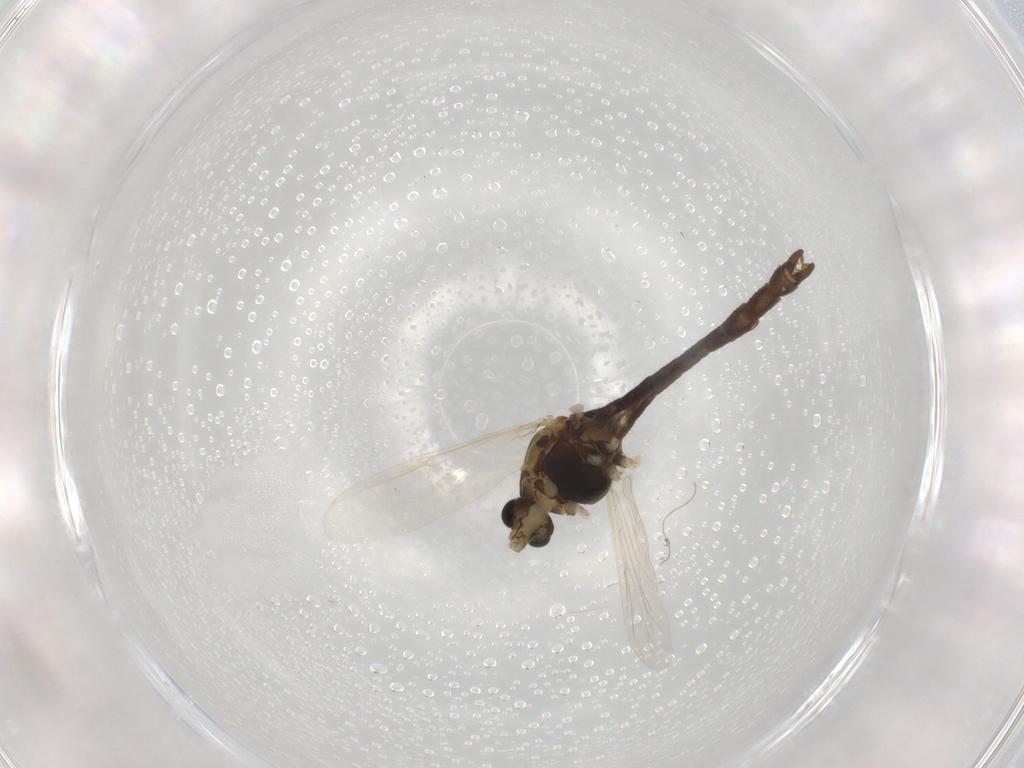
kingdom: Animalia
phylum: Arthropoda
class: Insecta
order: Diptera
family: Chironomidae
